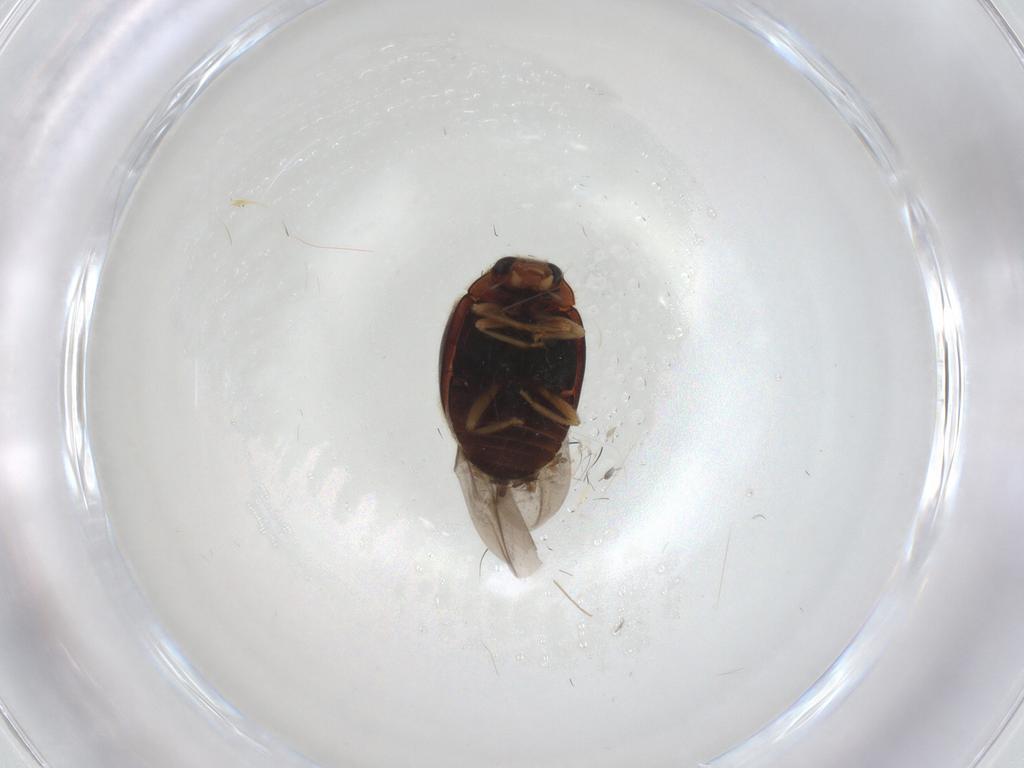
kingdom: Animalia
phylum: Arthropoda
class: Insecta
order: Coleoptera
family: Coccinellidae
